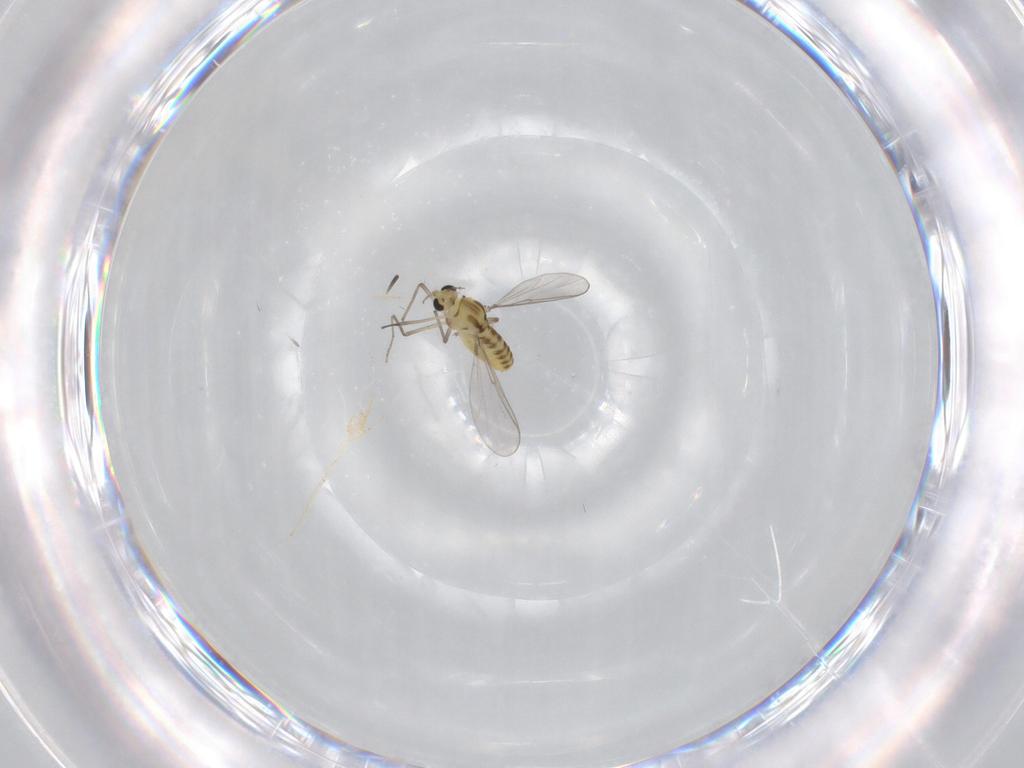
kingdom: Animalia
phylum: Arthropoda
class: Insecta
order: Diptera
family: Chironomidae
